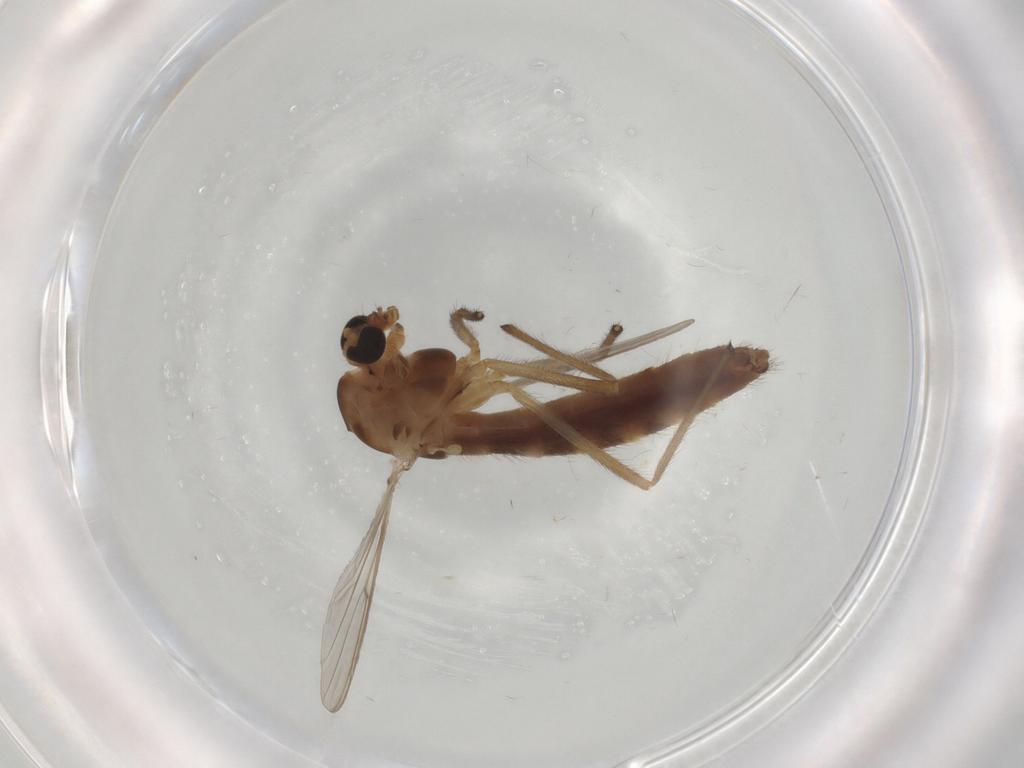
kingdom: Animalia
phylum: Arthropoda
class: Insecta
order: Diptera
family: Chironomidae
